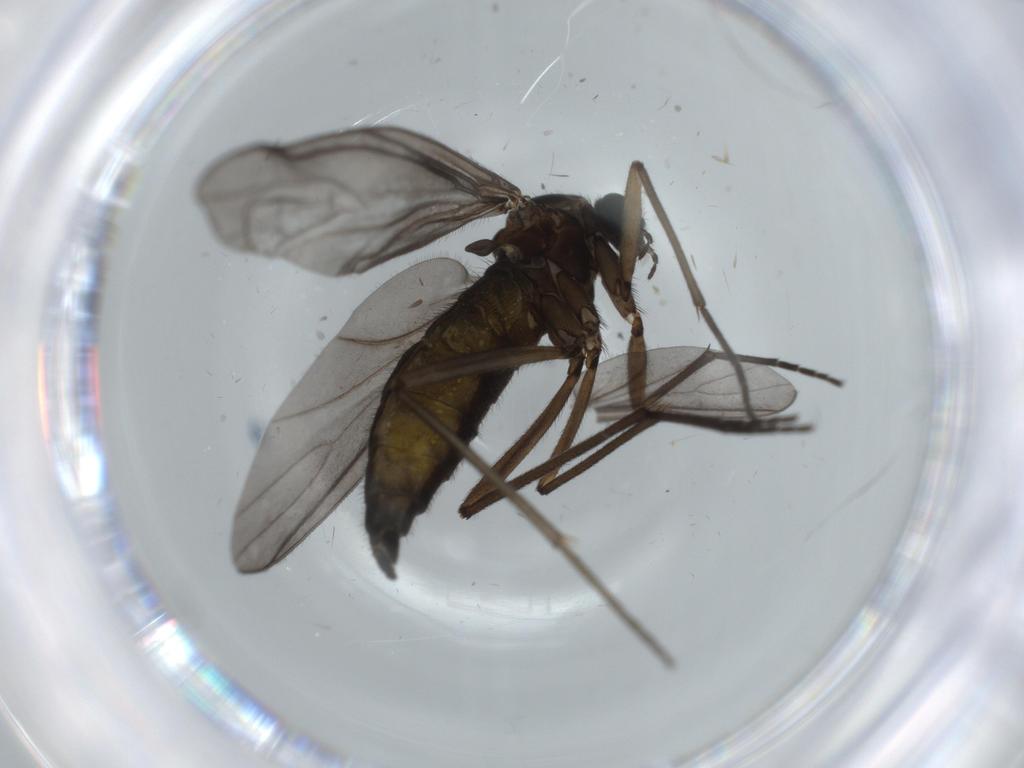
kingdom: Animalia
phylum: Arthropoda
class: Insecta
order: Diptera
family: Sciaridae
